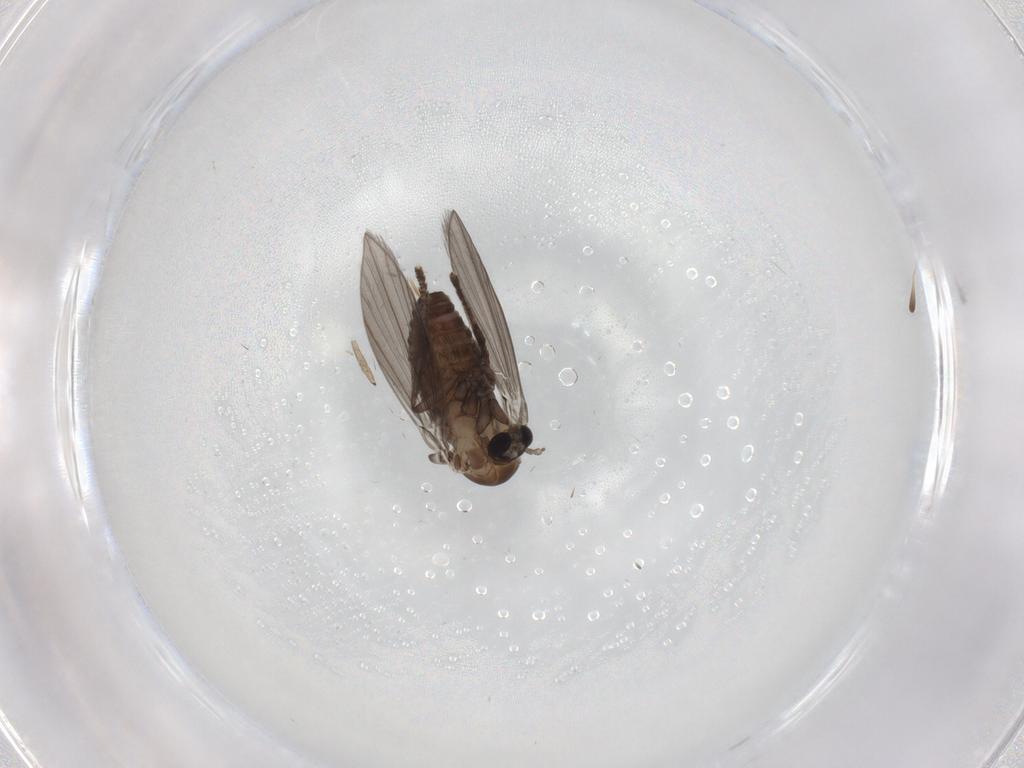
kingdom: Animalia
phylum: Arthropoda
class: Insecta
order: Diptera
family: Psychodidae
